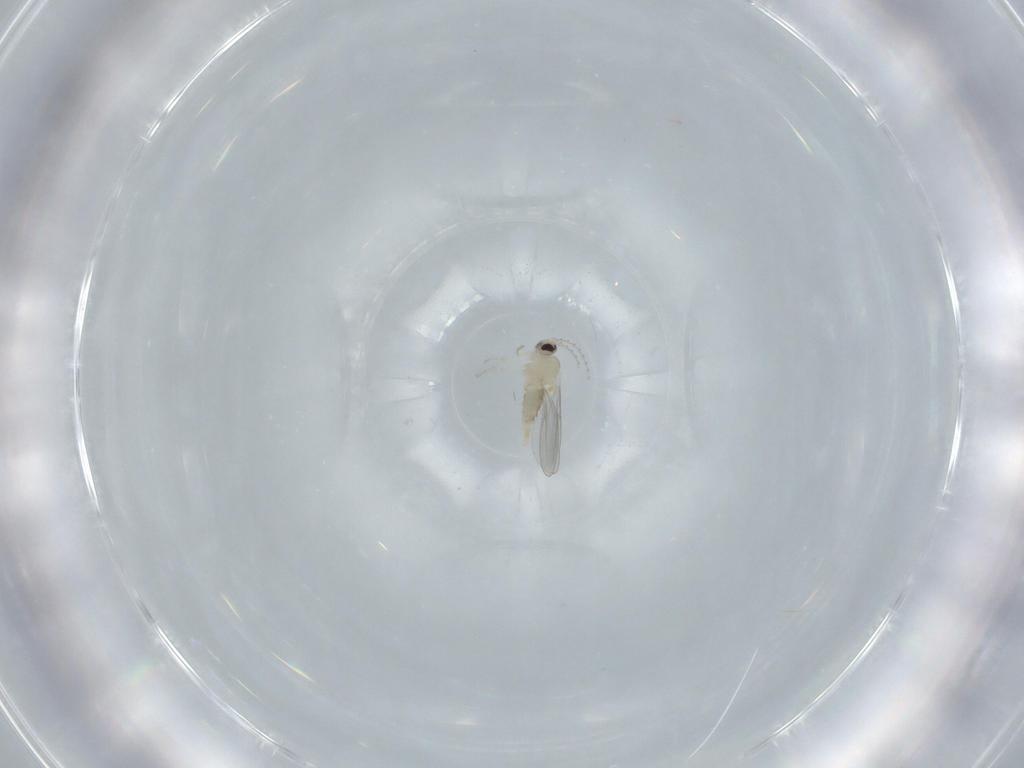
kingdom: Animalia
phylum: Arthropoda
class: Insecta
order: Diptera
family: Cecidomyiidae
